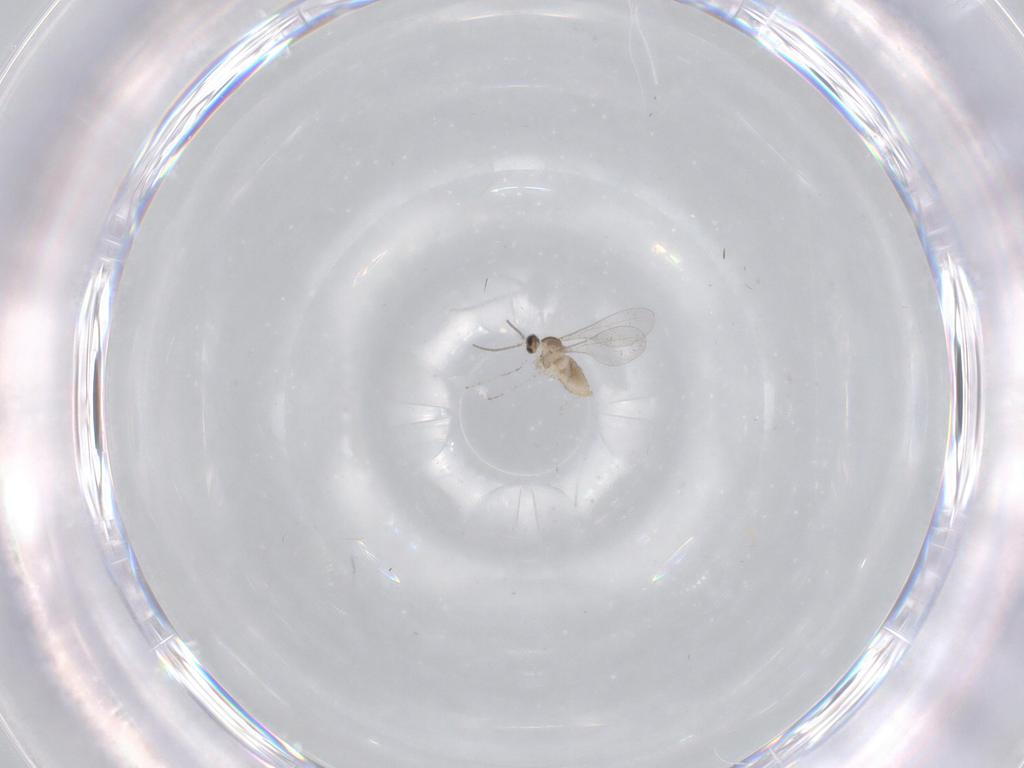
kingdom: Animalia
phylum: Arthropoda
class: Insecta
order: Diptera
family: Cecidomyiidae
